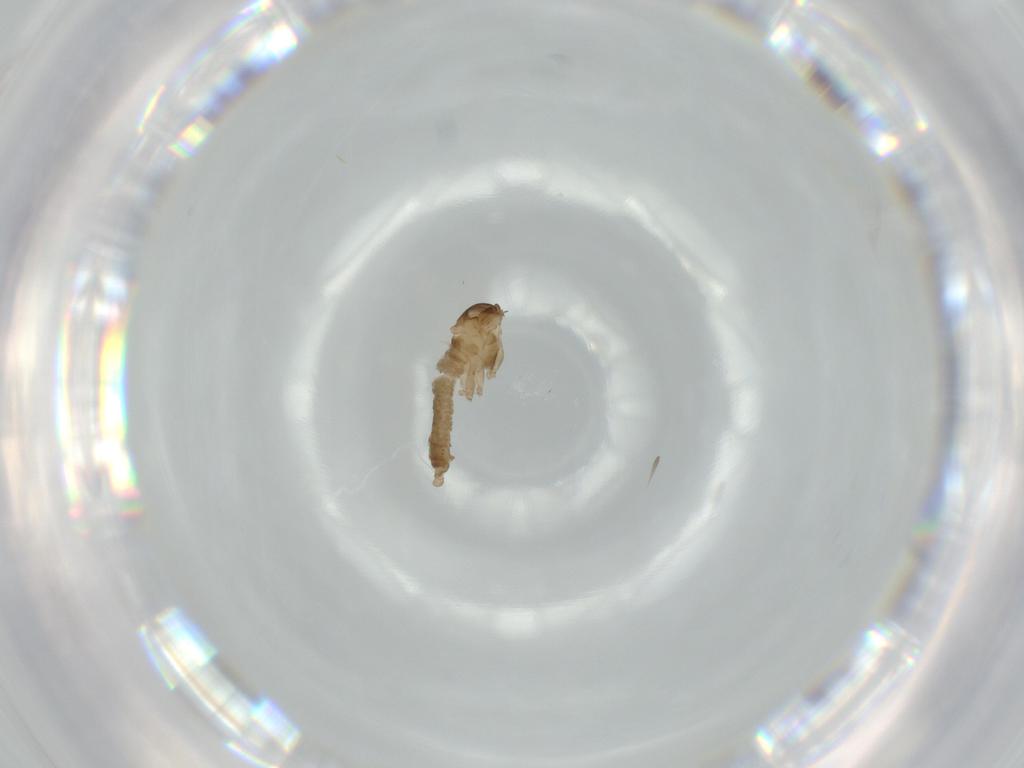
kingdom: Animalia
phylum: Arthropoda
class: Insecta
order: Diptera
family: Cecidomyiidae
